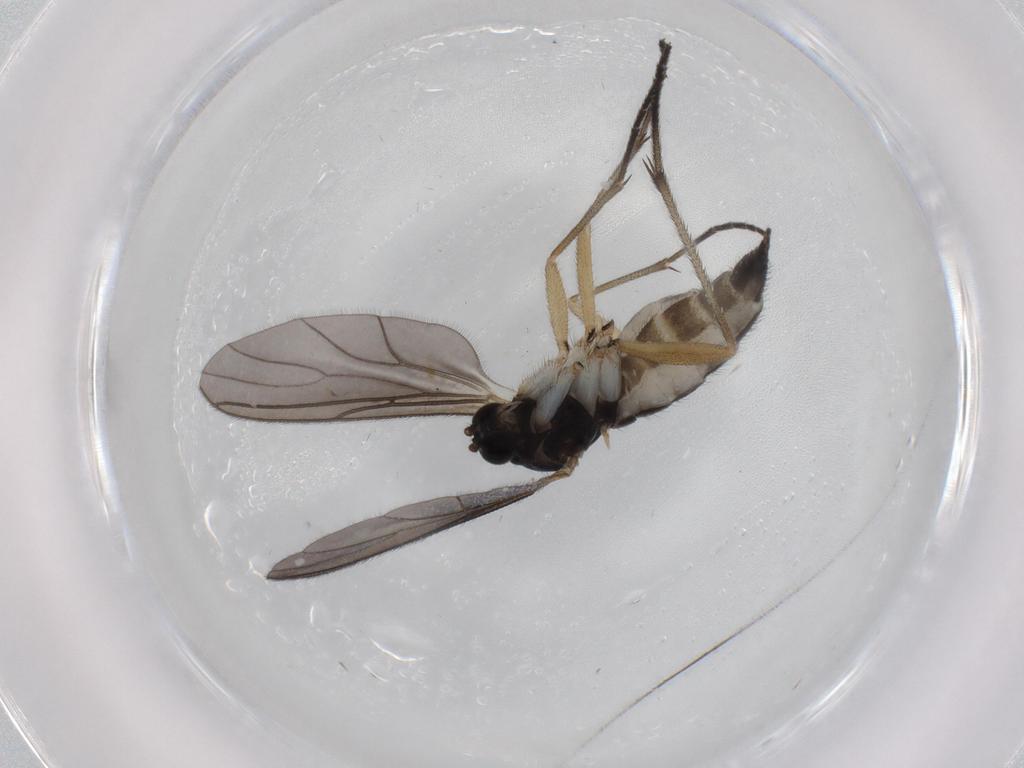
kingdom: Animalia
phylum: Arthropoda
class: Insecta
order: Diptera
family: Sciaridae
